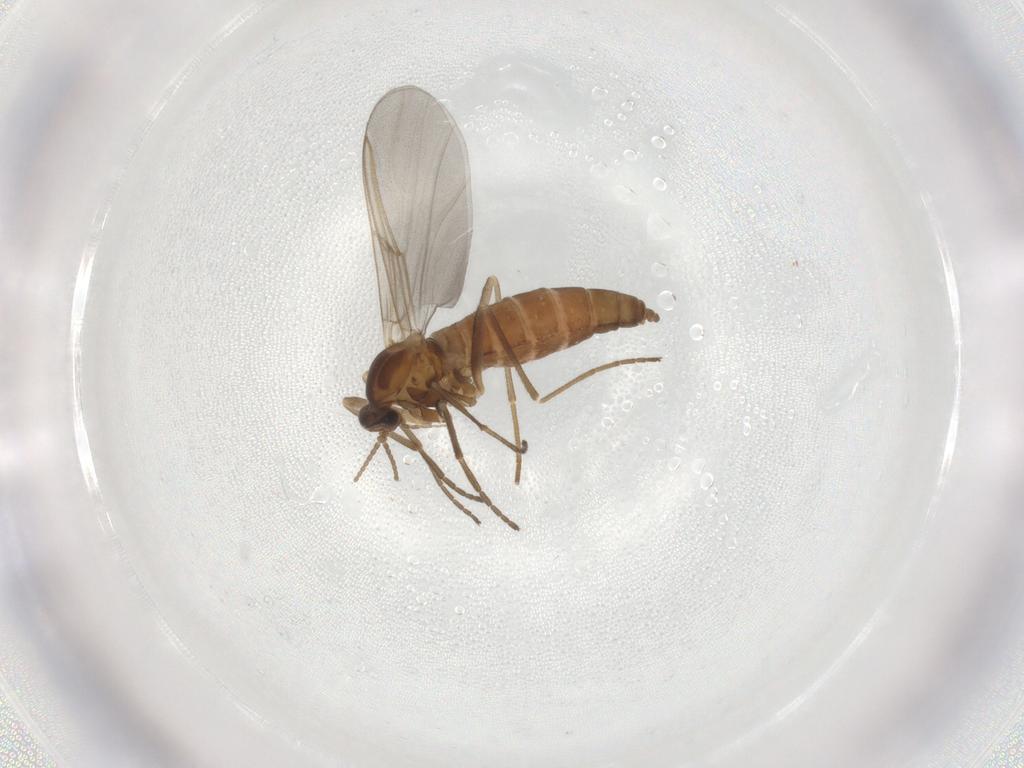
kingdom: Animalia
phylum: Arthropoda
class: Insecta
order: Diptera
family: Cecidomyiidae
